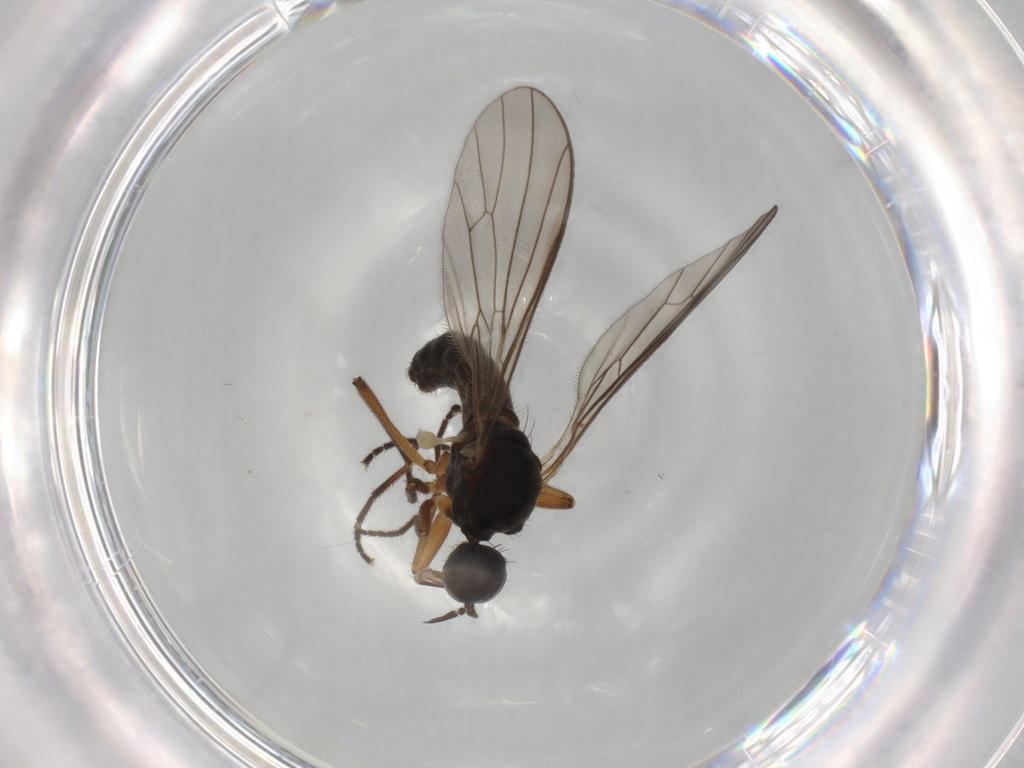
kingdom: Animalia
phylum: Arthropoda
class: Insecta
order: Diptera
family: Empididae
